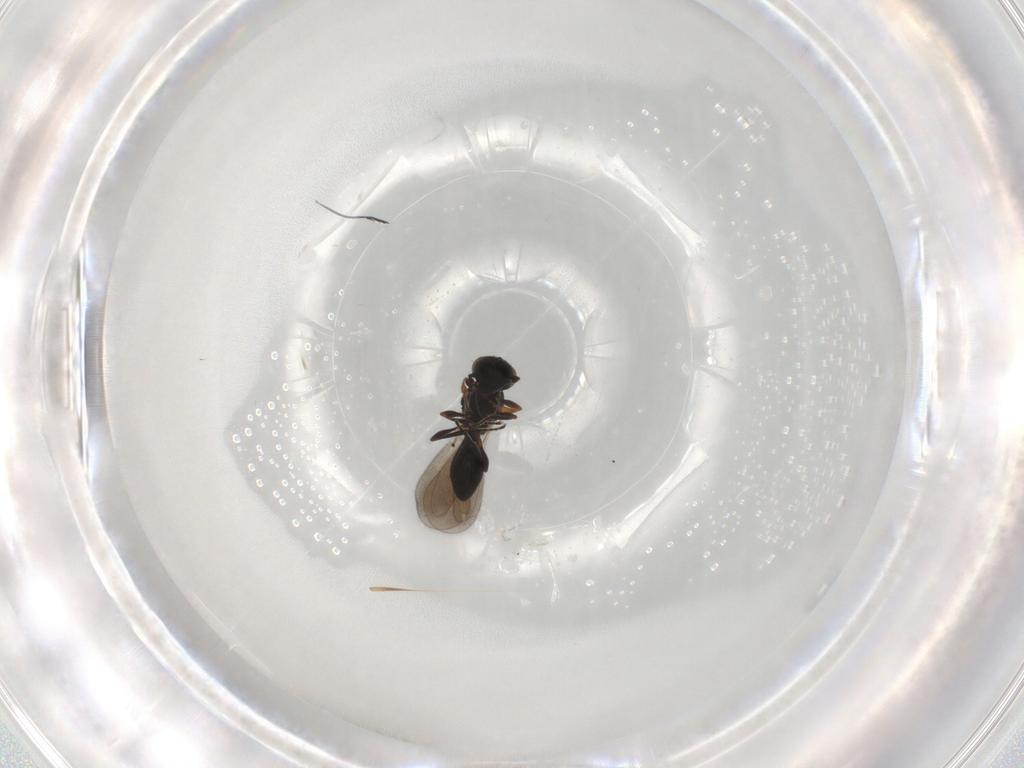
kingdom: Animalia
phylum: Arthropoda
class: Insecta
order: Hymenoptera
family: Platygastridae
